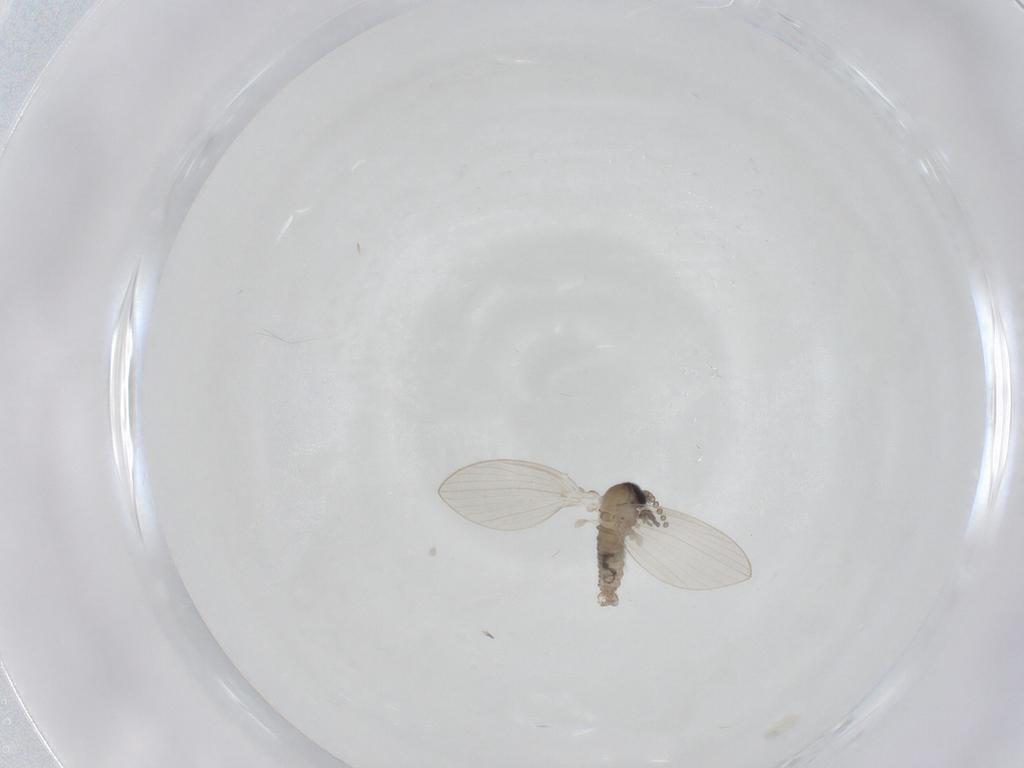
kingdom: Animalia
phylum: Arthropoda
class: Insecta
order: Diptera
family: Psychodidae
